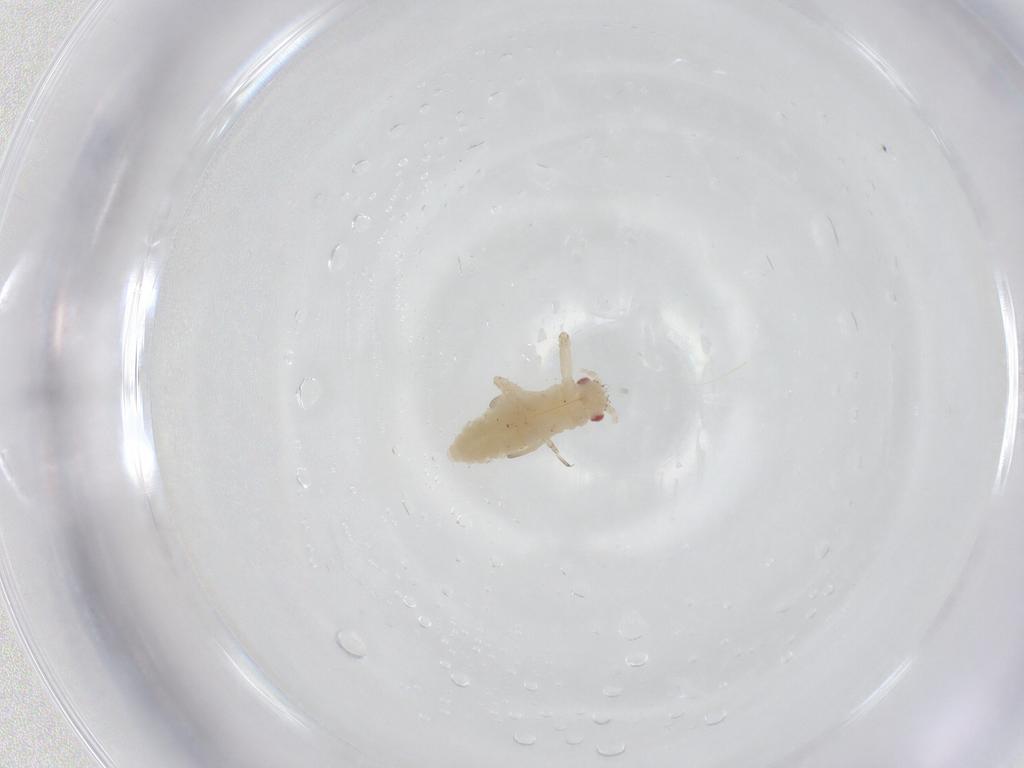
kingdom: Animalia
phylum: Arthropoda
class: Insecta
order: Hemiptera
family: Aphididae
